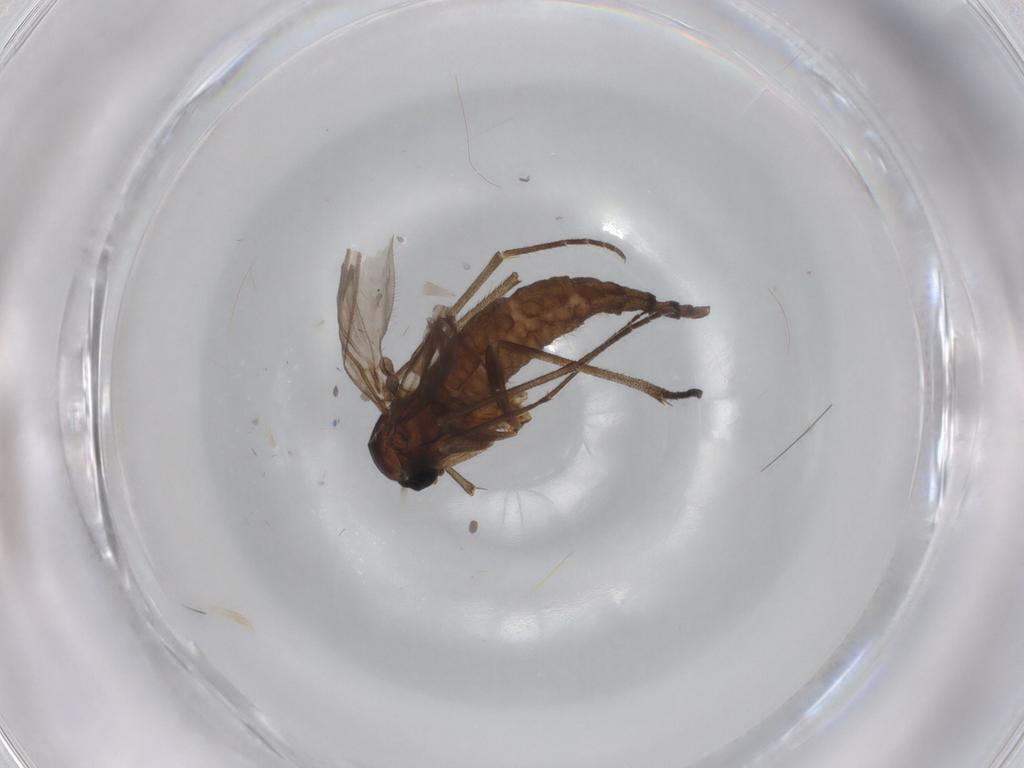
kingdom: Animalia
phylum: Arthropoda
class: Insecta
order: Diptera
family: Sciaridae
